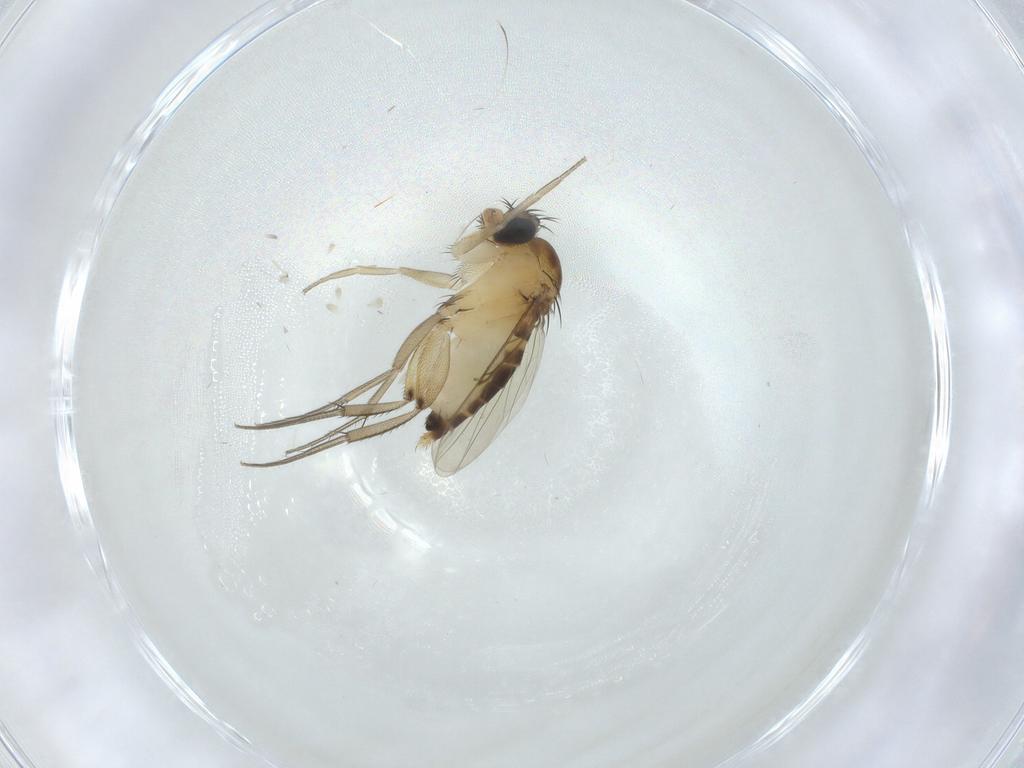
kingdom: Animalia
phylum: Arthropoda
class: Insecta
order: Diptera
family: Phoridae
